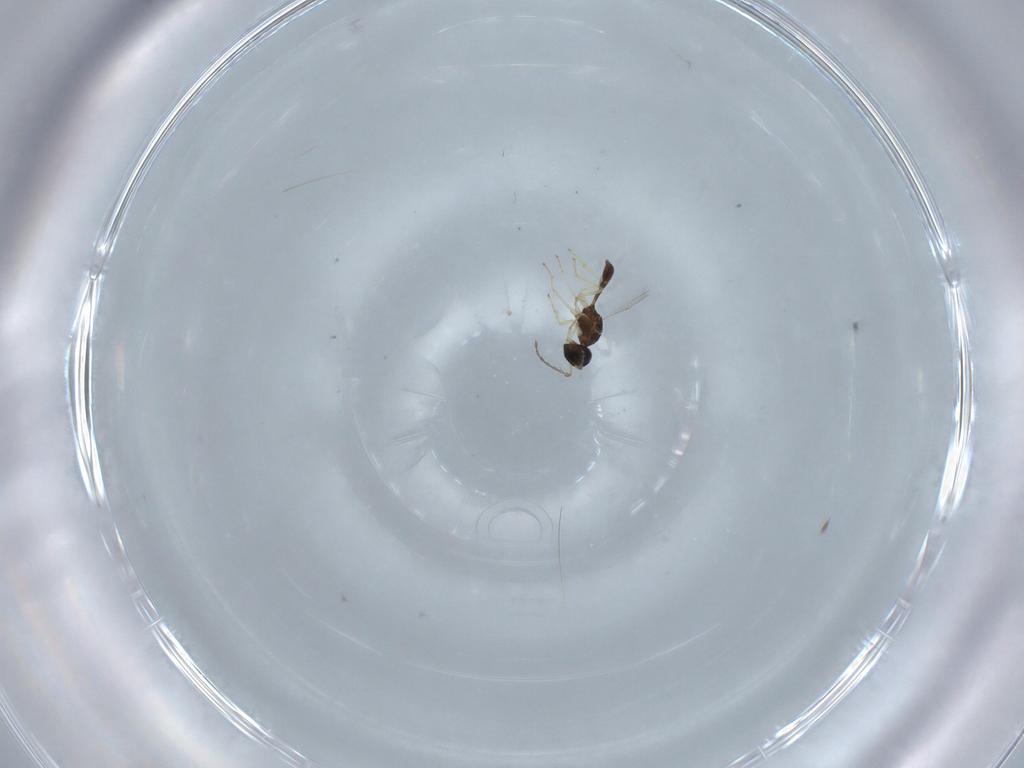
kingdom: Animalia
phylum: Arthropoda
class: Insecta
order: Hymenoptera
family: Diparidae
